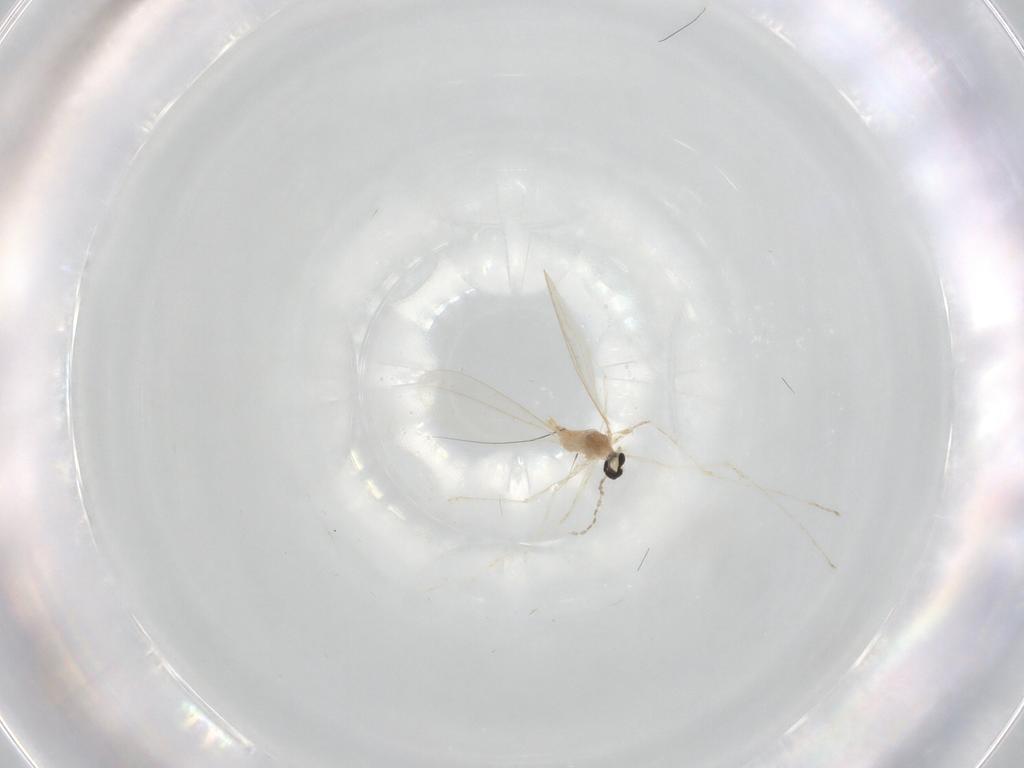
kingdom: Animalia
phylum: Arthropoda
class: Insecta
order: Diptera
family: Cecidomyiidae
